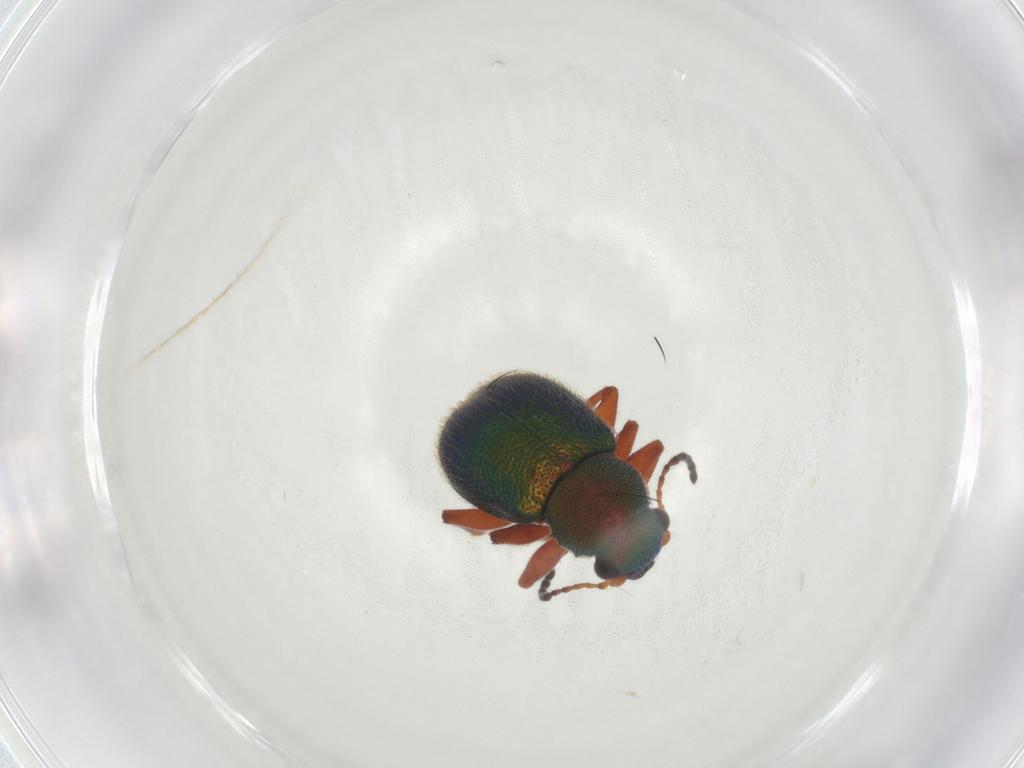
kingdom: Animalia
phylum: Arthropoda
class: Insecta
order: Coleoptera
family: Chrysomelidae
